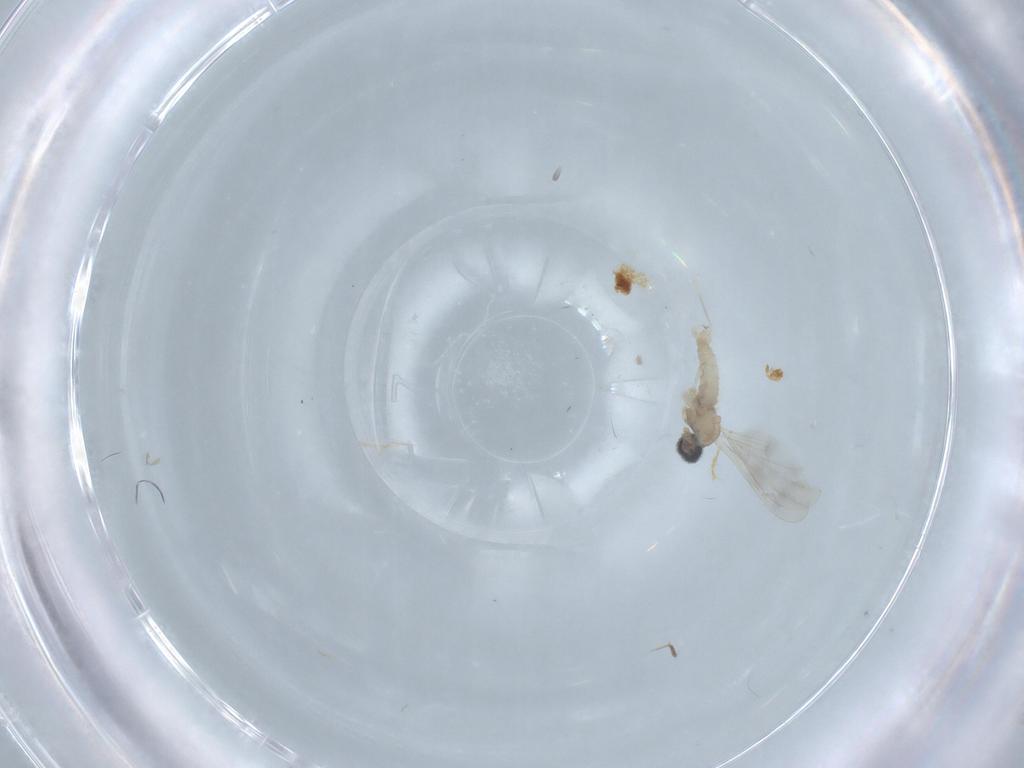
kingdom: Animalia
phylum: Arthropoda
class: Insecta
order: Diptera
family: Cecidomyiidae
